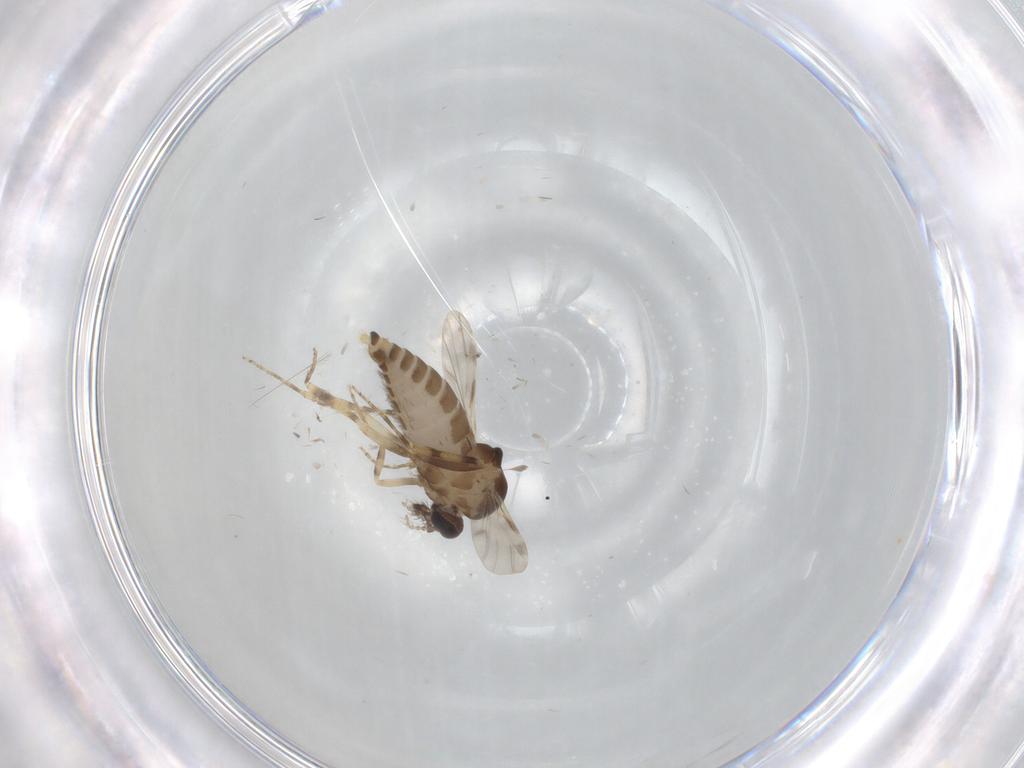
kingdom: Animalia
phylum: Arthropoda
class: Insecta
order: Diptera
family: Ceratopogonidae
